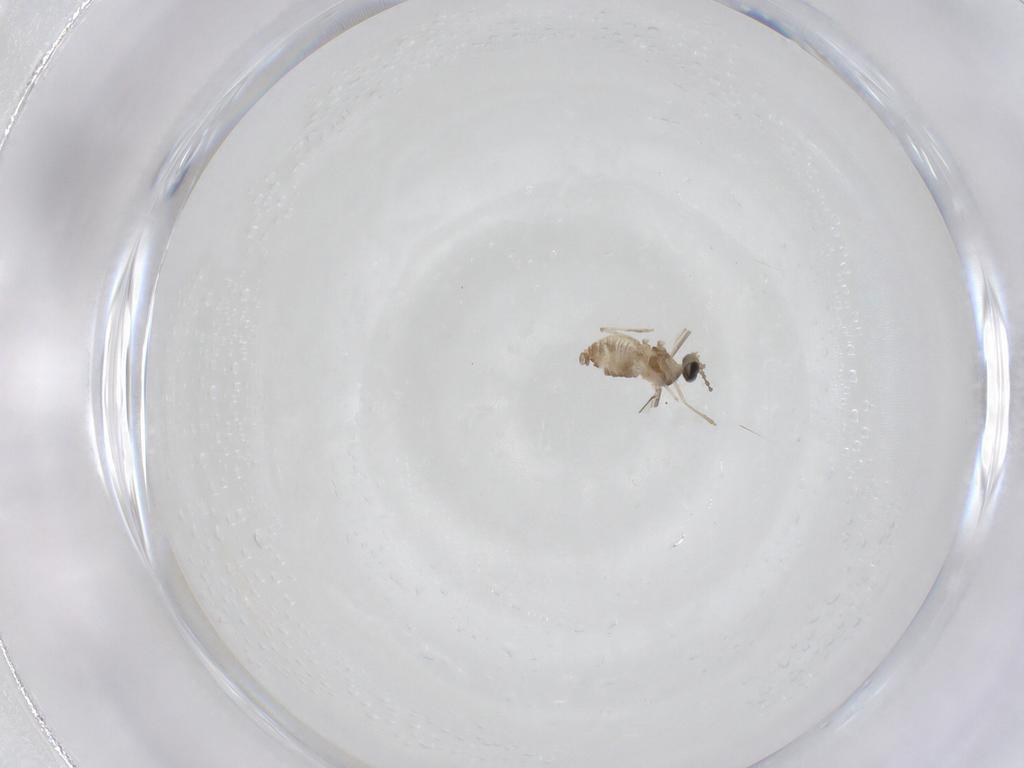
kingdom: Animalia
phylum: Arthropoda
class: Insecta
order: Diptera
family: Cecidomyiidae
